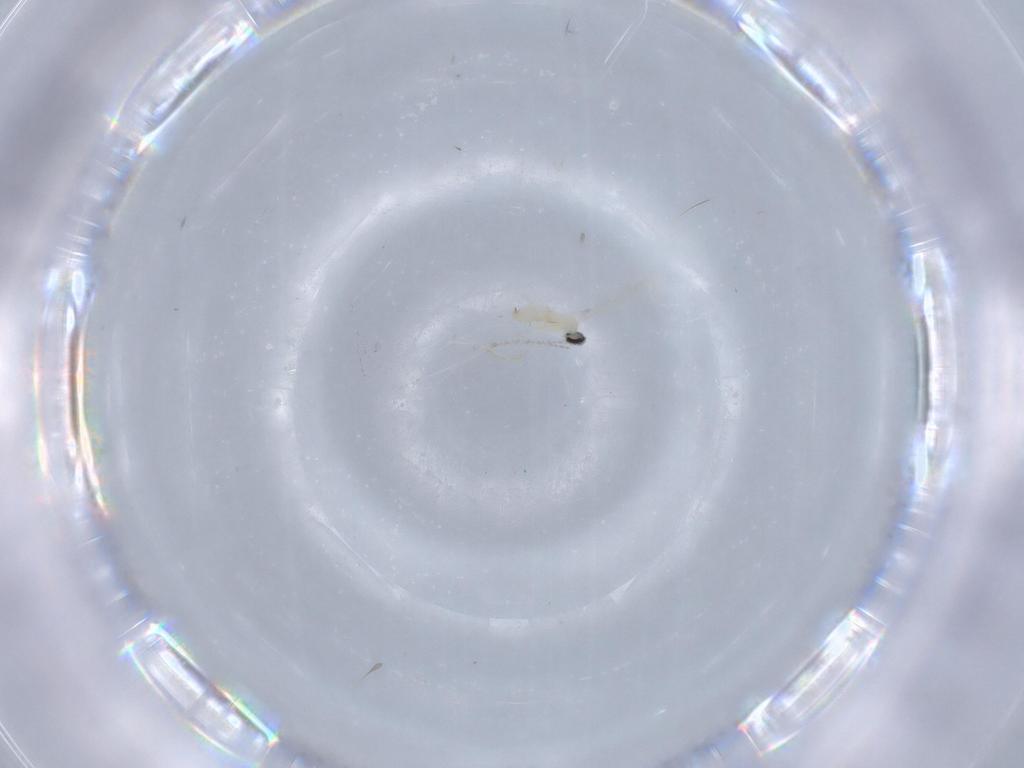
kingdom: Animalia
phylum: Arthropoda
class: Insecta
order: Diptera
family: Cecidomyiidae
